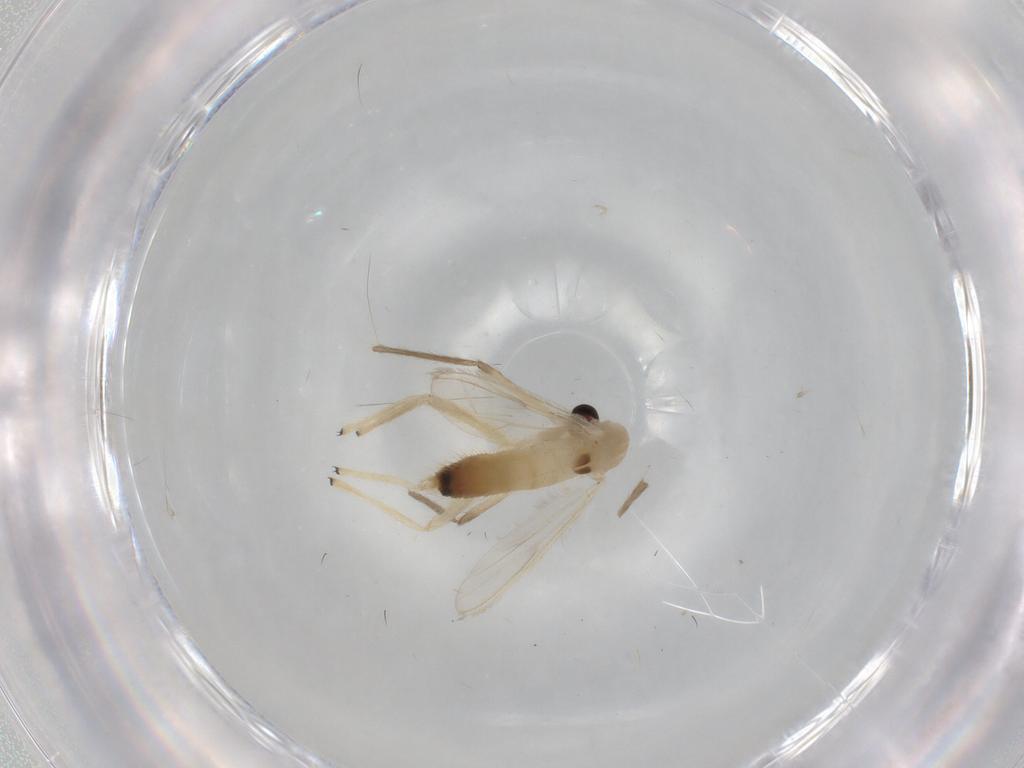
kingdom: Animalia
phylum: Arthropoda
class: Insecta
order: Diptera
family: Chironomidae
